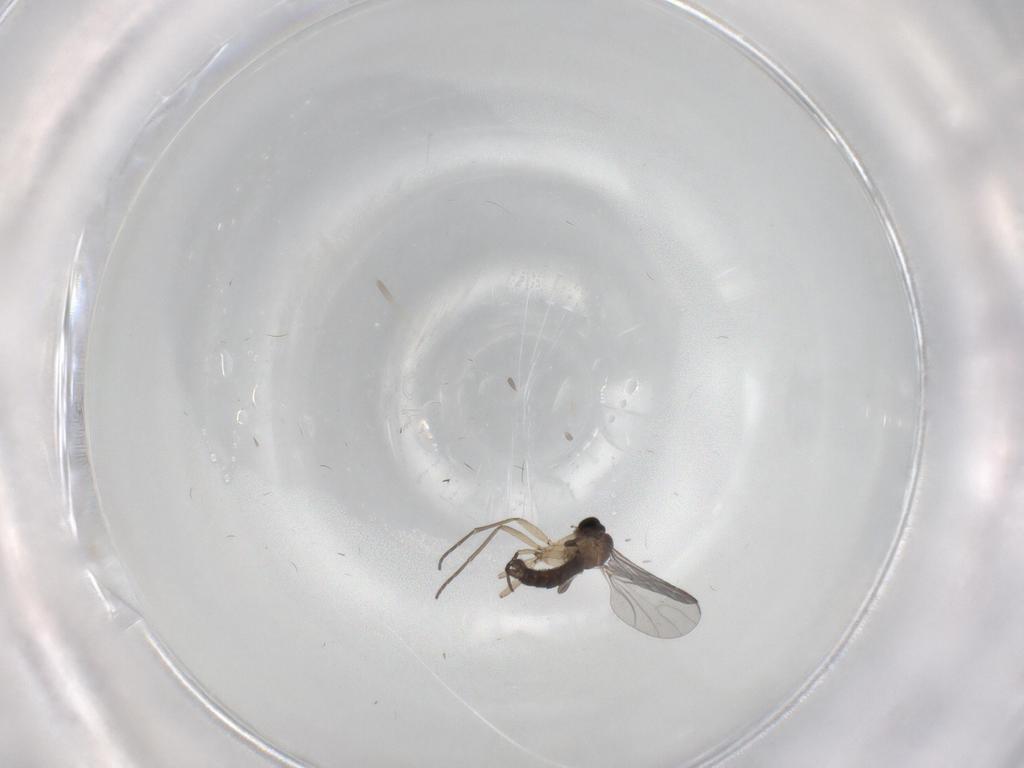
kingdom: Animalia
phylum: Arthropoda
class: Insecta
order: Diptera
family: Sciaridae
